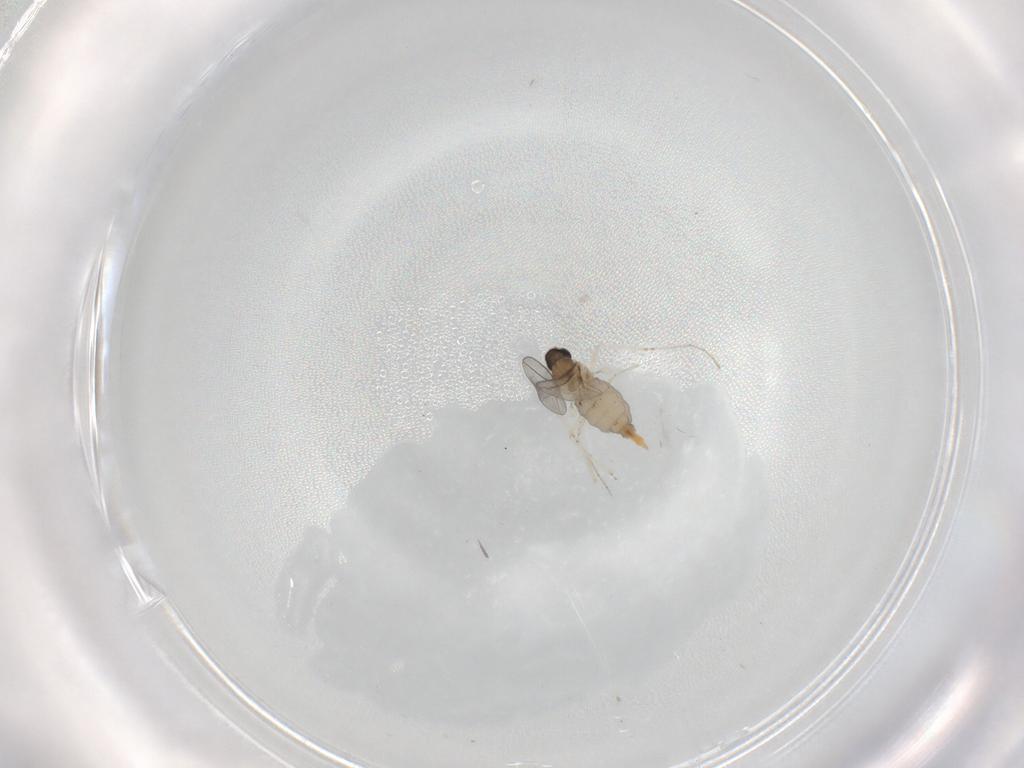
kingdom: Animalia
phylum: Arthropoda
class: Insecta
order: Diptera
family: Cecidomyiidae
